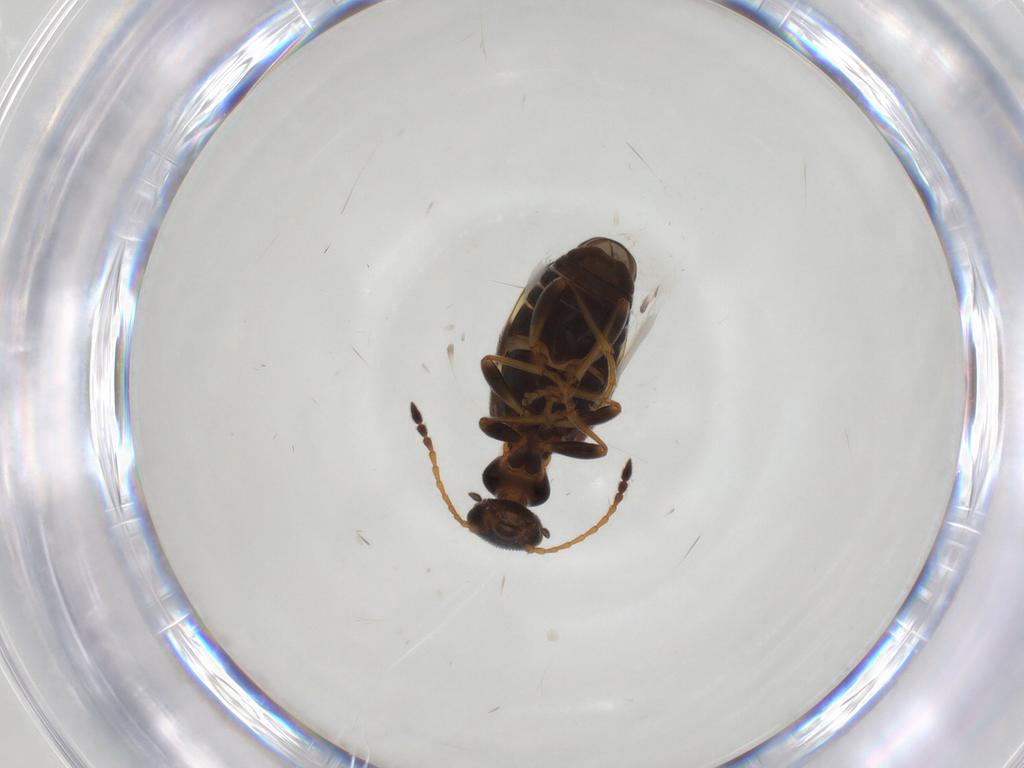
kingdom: Animalia
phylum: Arthropoda
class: Insecta
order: Coleoptera
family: Anthicidae
